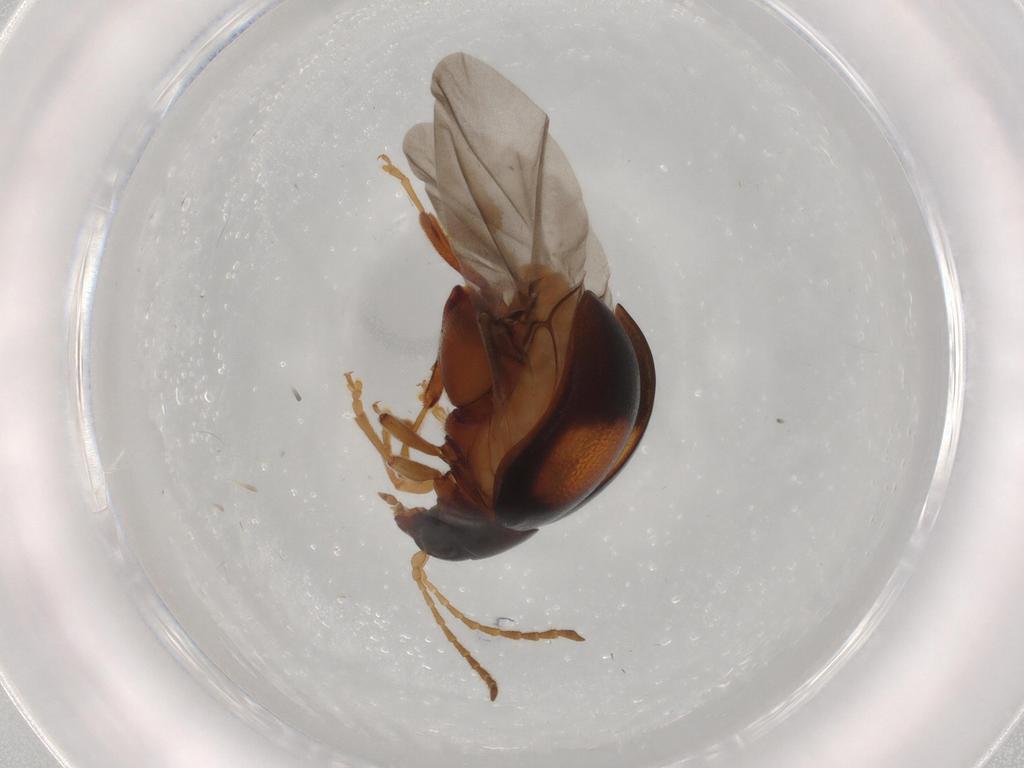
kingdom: Animalia
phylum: Arthropoda
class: Insecta
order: Coleoptera
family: Chrysomelidae
